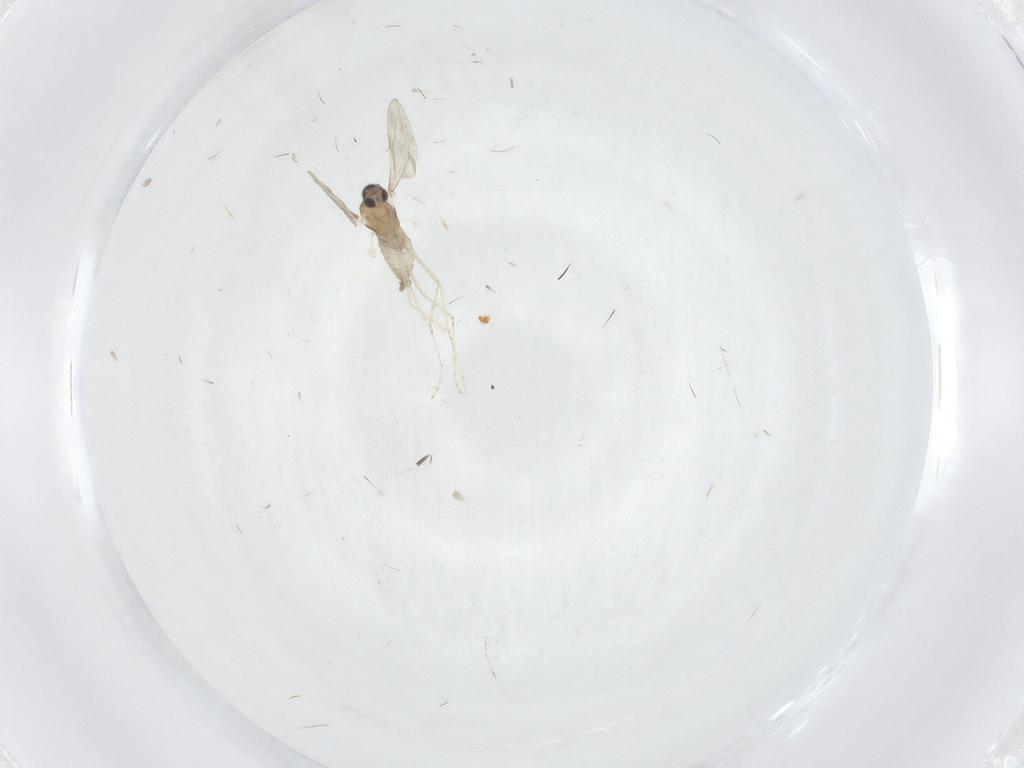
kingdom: Animalia
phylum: Arthropoda
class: Insecta
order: Diptera
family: Cecidomyiidae
